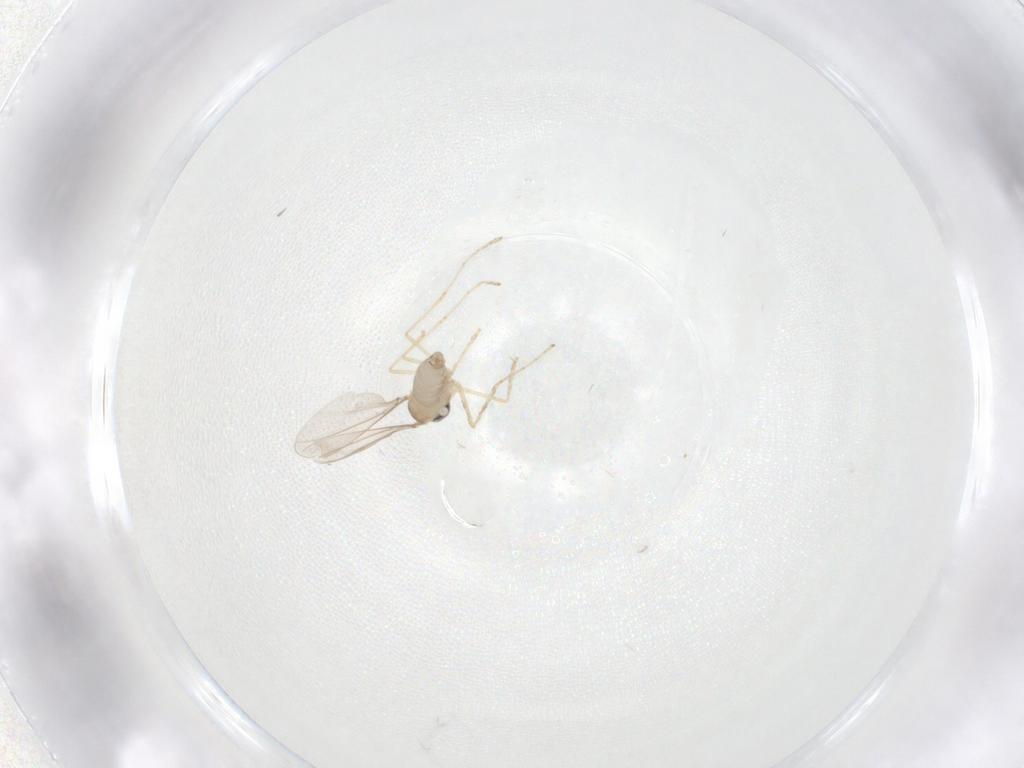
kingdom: Animalia
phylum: Arthropoda
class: Insecta
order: Diptera
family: Cecidomyiidae
